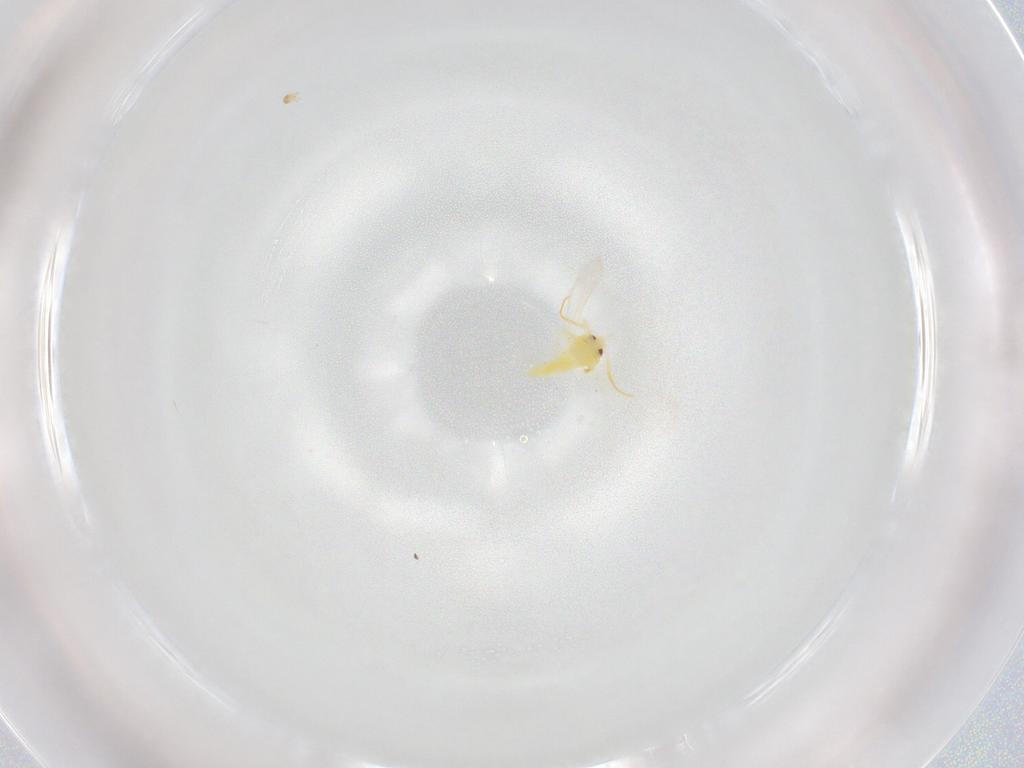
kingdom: Animalia
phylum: Arthropoda
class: Insecta
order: Hemiptera
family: Aleyrodidae
